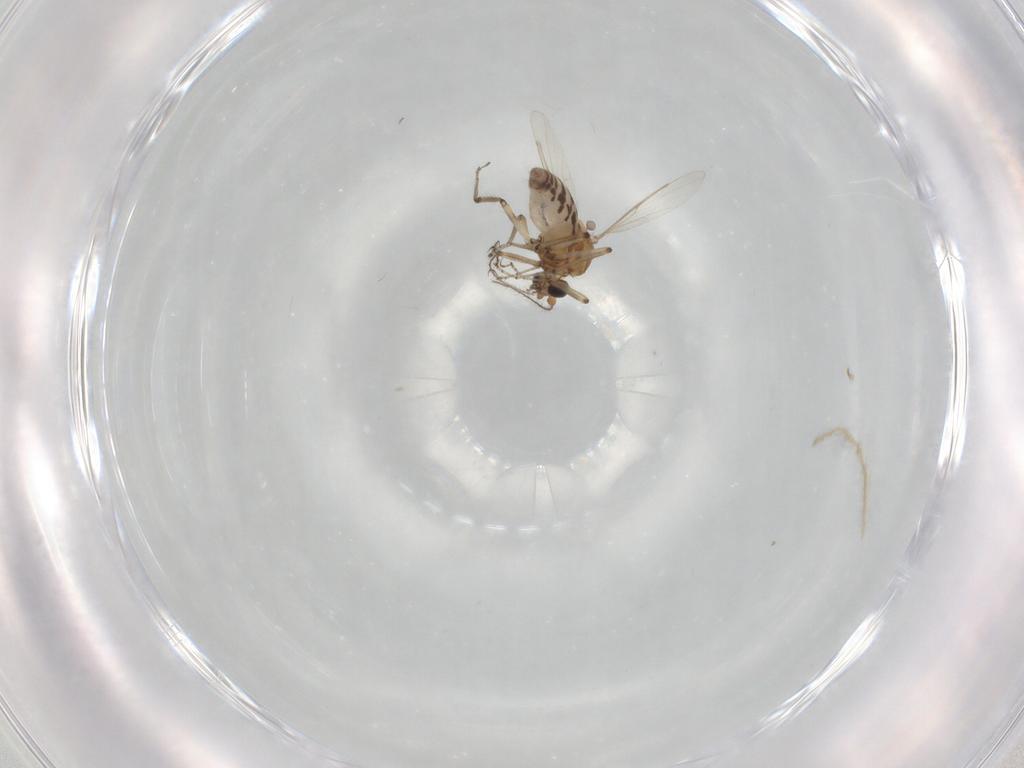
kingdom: Animalia
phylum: Arthropoda
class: Insecta
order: Diptera
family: Ceratopogonidae
